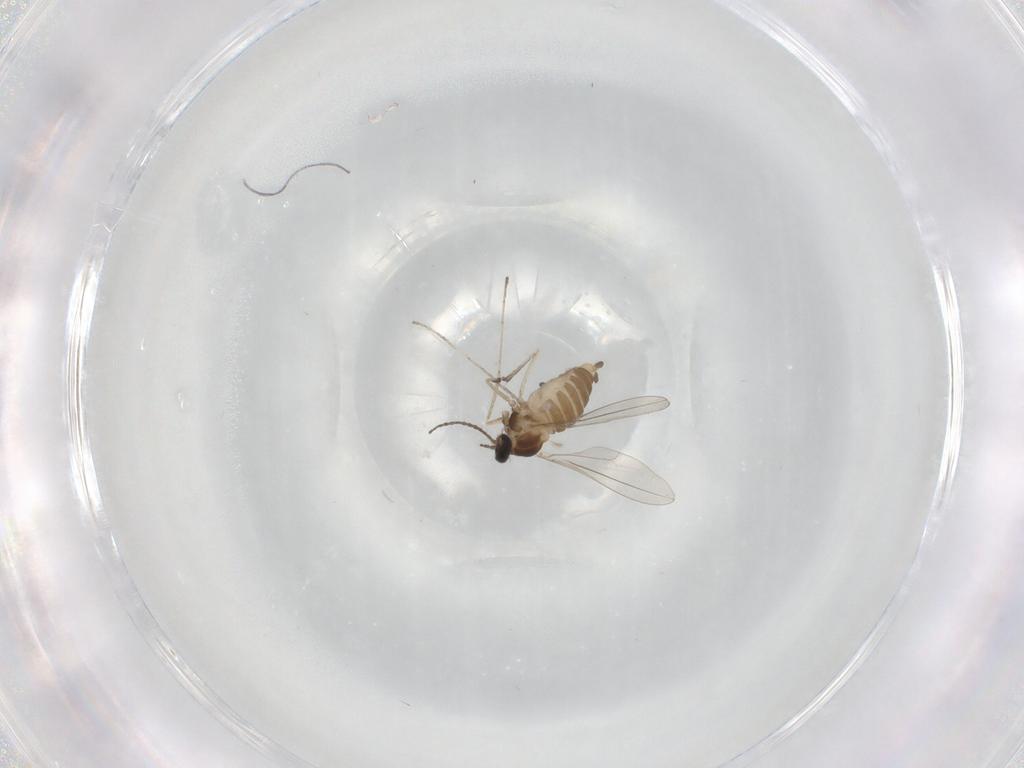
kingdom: Animalia
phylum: Arthropoda
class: Insecta
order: Diptera
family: Cecidomyiidae
